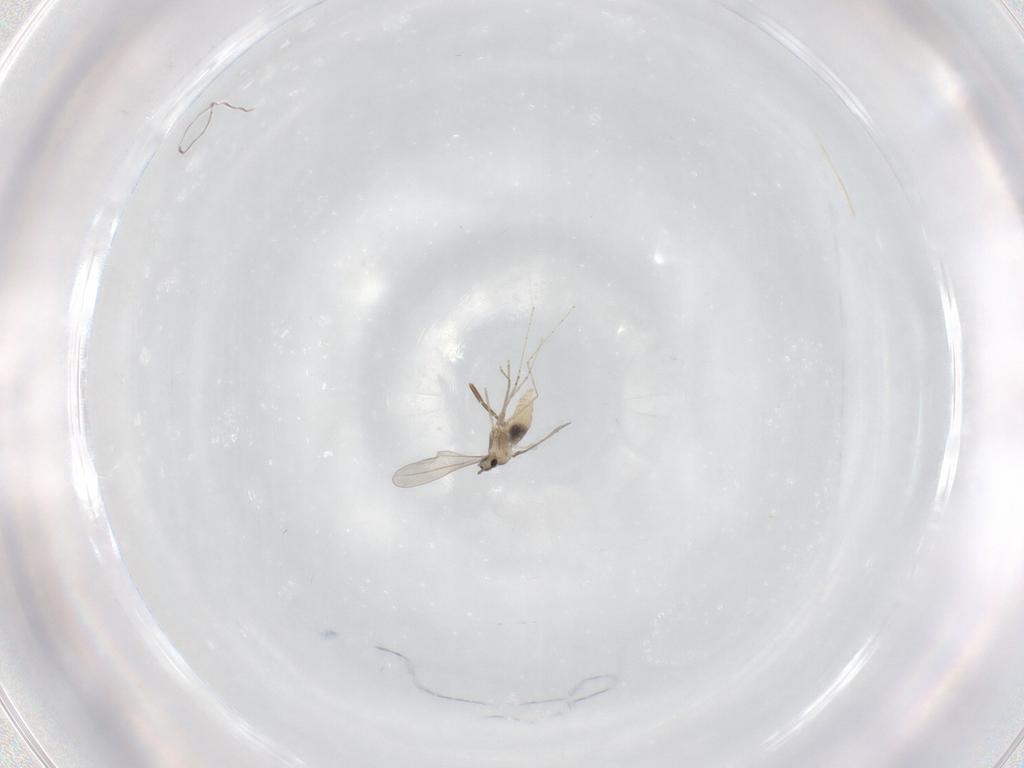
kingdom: Animalia
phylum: Arthropoda
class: Insecta
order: Diptera
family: Cecidomyiidae
